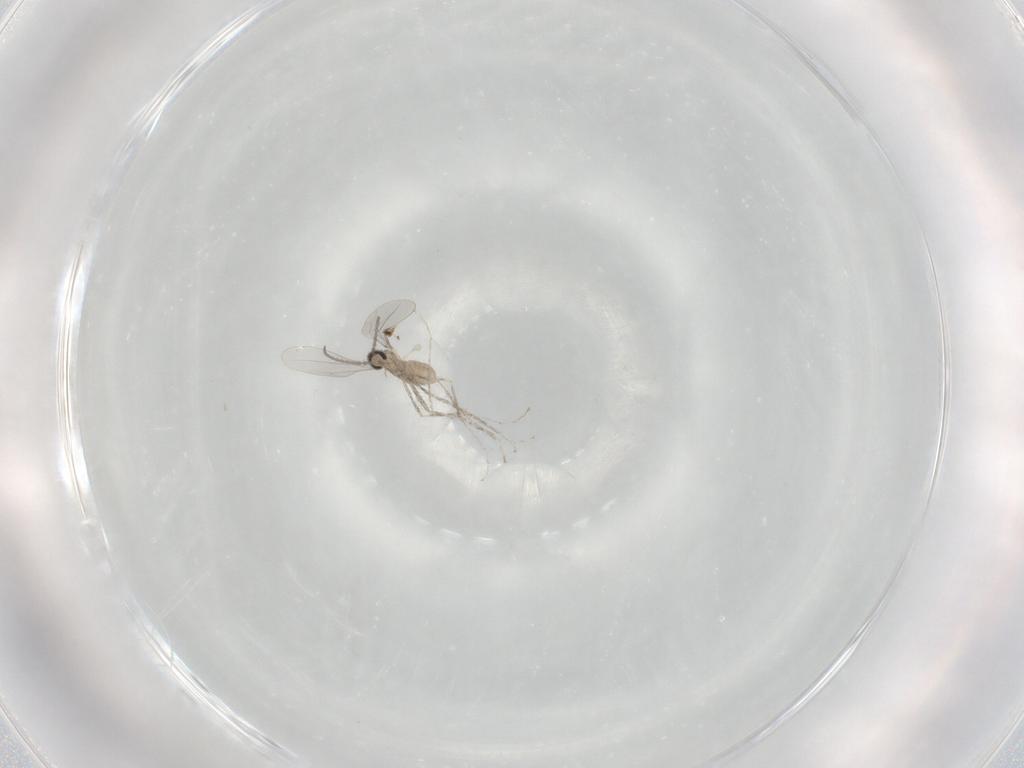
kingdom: Animalia
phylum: Arthropoda
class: Insecta
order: Diptera
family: Cecidomyiidae
